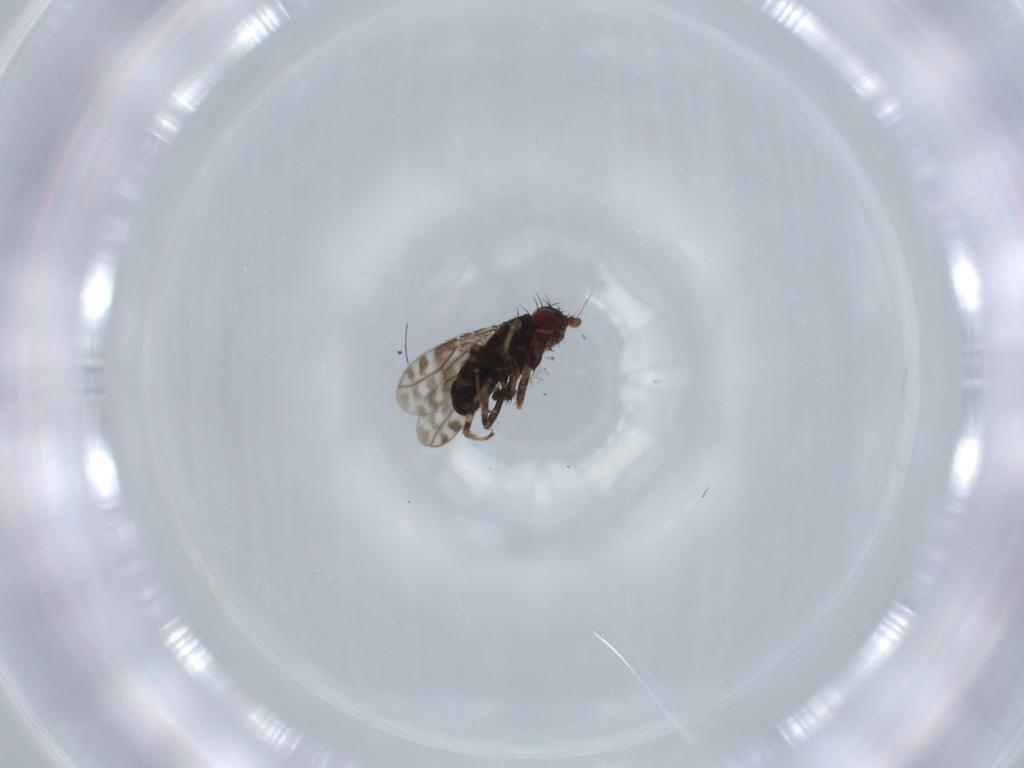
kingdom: Animalia
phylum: Arthropoda
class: Insecta
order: Diptera
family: Sphaeroceridae
